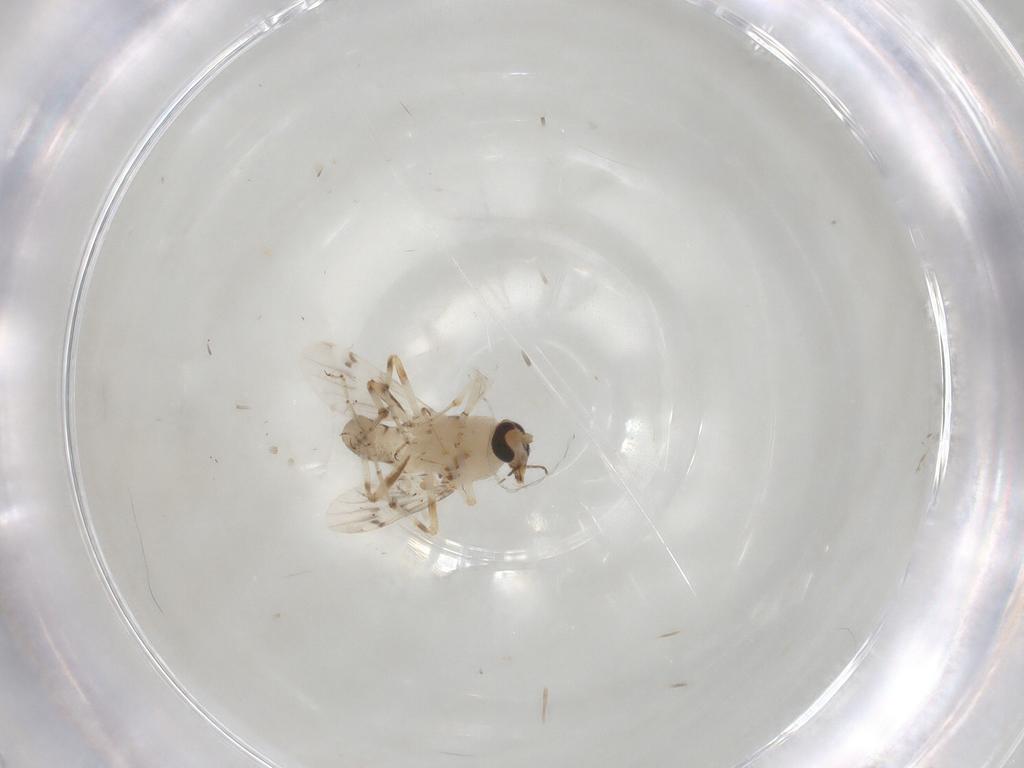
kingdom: Animalia
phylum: Arthropoda
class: Insecta
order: Diptera
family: Ceratopogonidae
